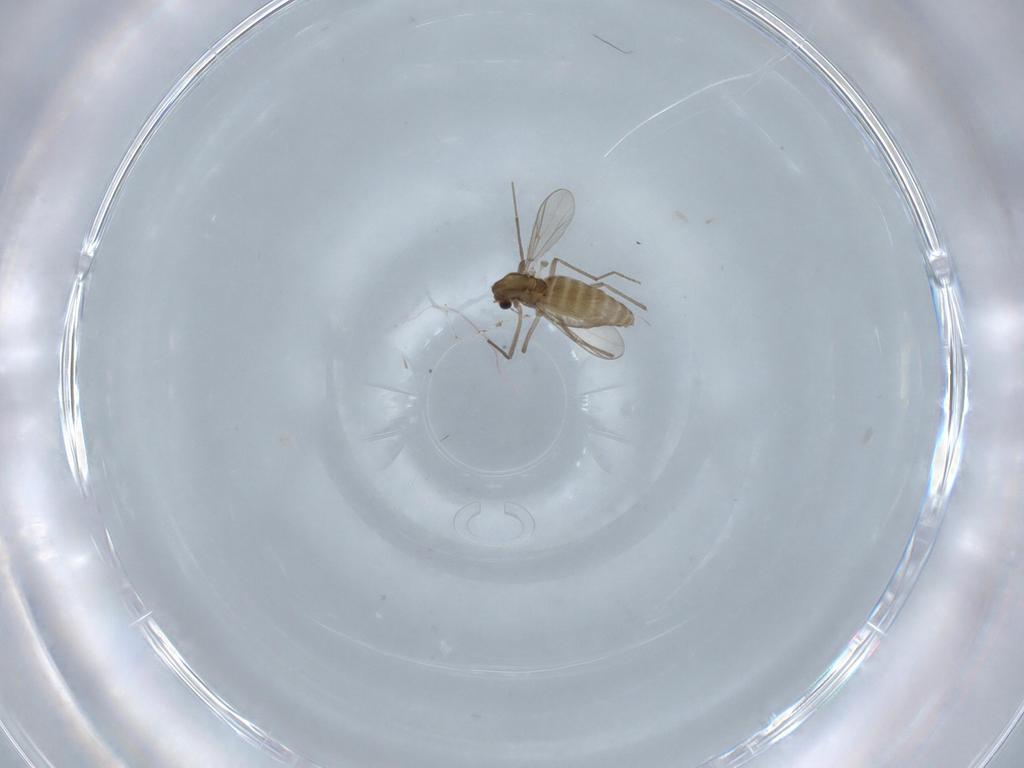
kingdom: Animalia
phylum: Arthropoda
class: Insecta
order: Diptera
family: Chironomidae
